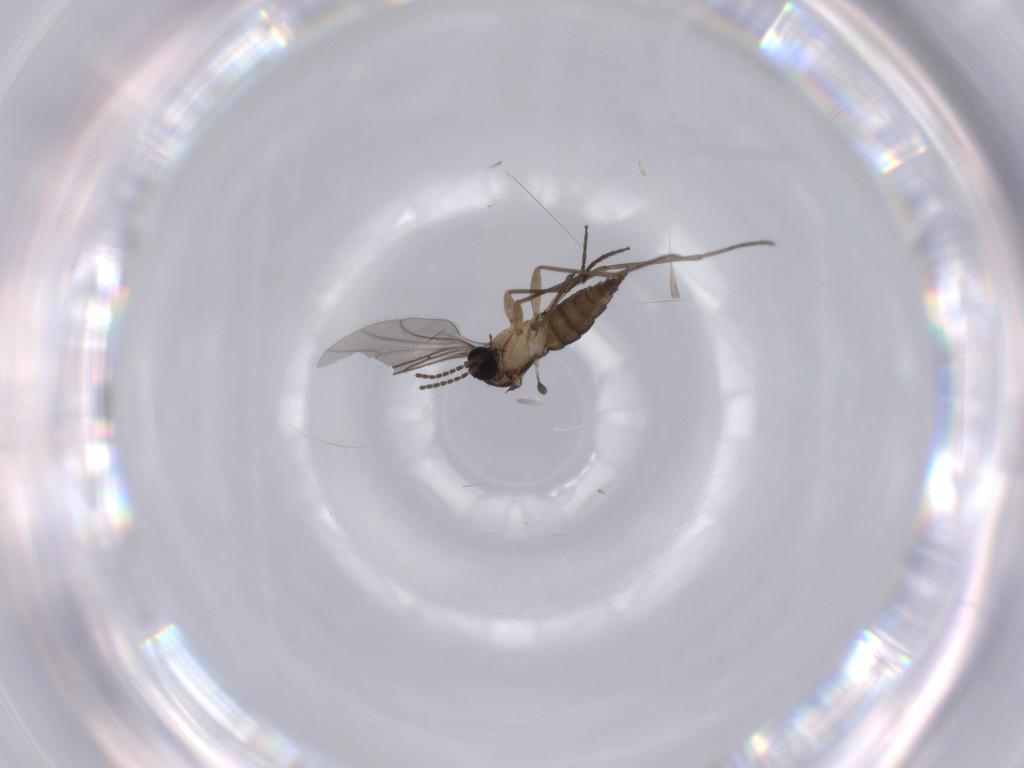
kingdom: Animalia
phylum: Arthropoda
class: Insecta
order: Diptera
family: Sciaridae
